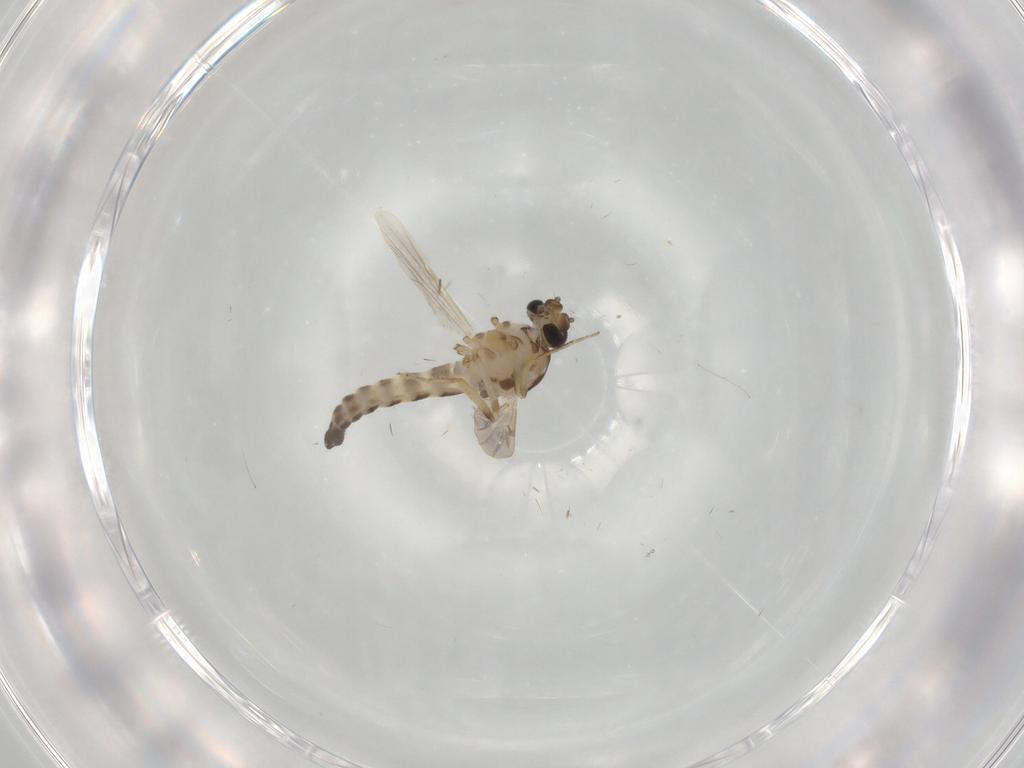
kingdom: Animalia
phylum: Arthropoda
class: Insecta
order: Diptera
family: Ceratopogonidae
